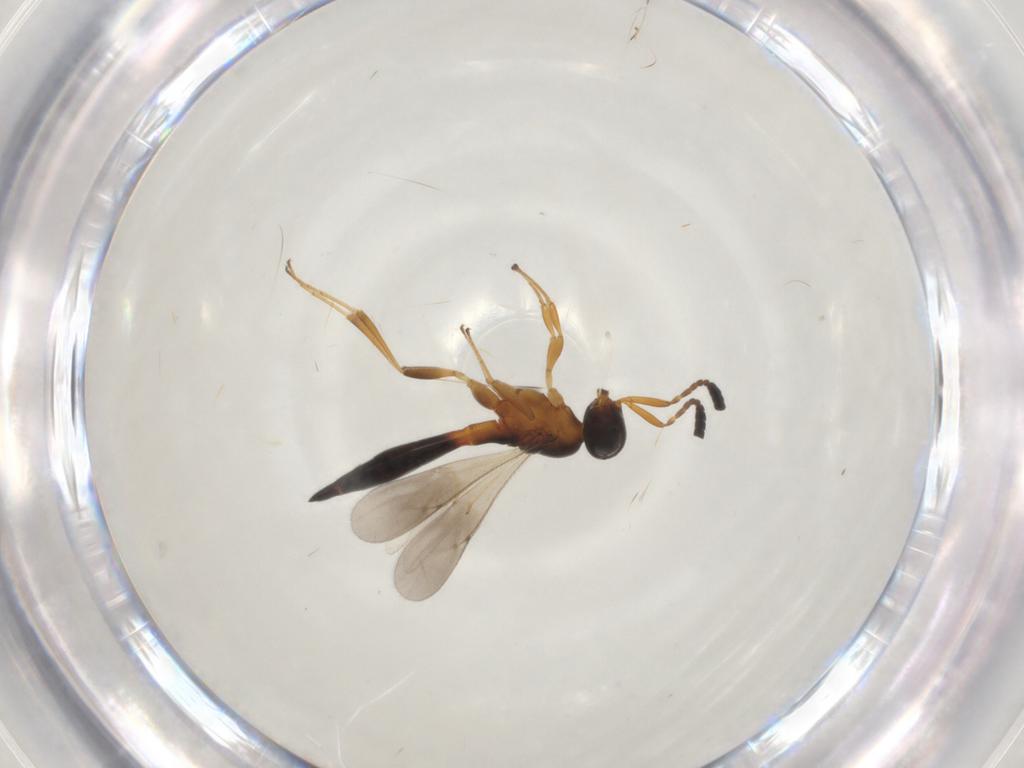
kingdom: Animalia
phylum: Arthropoda
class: Insecta
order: Hymenoptera
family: Scelionidae
